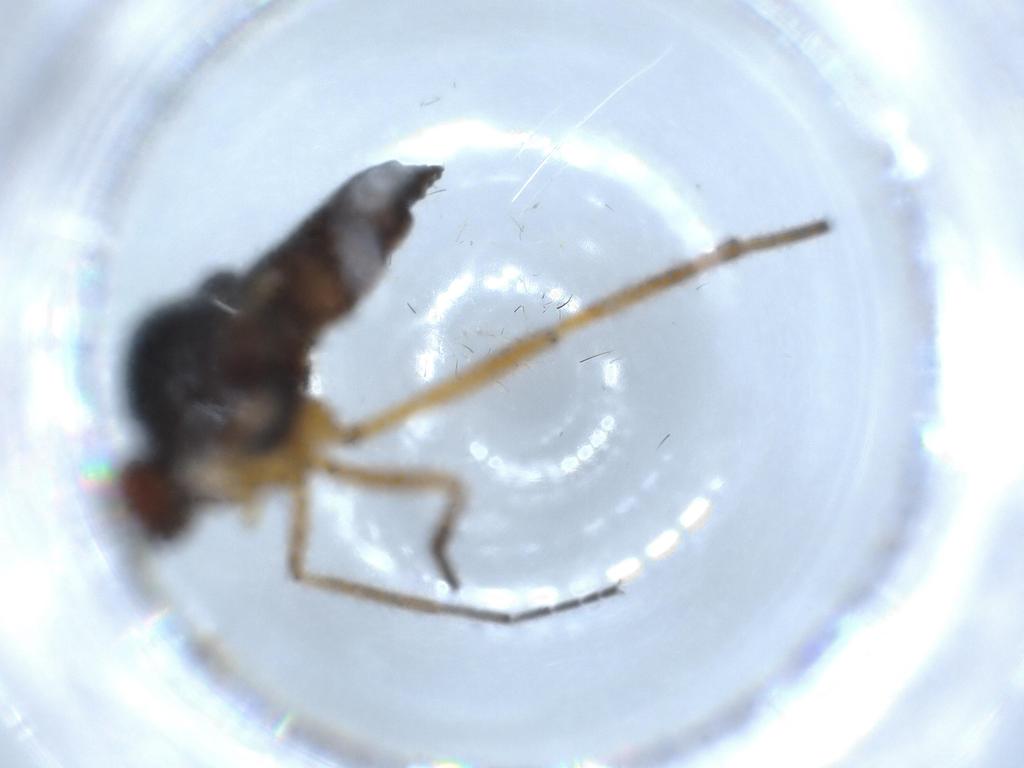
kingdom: Animalia
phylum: Arthropoda
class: Insecta
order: Diptera
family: Empididae
